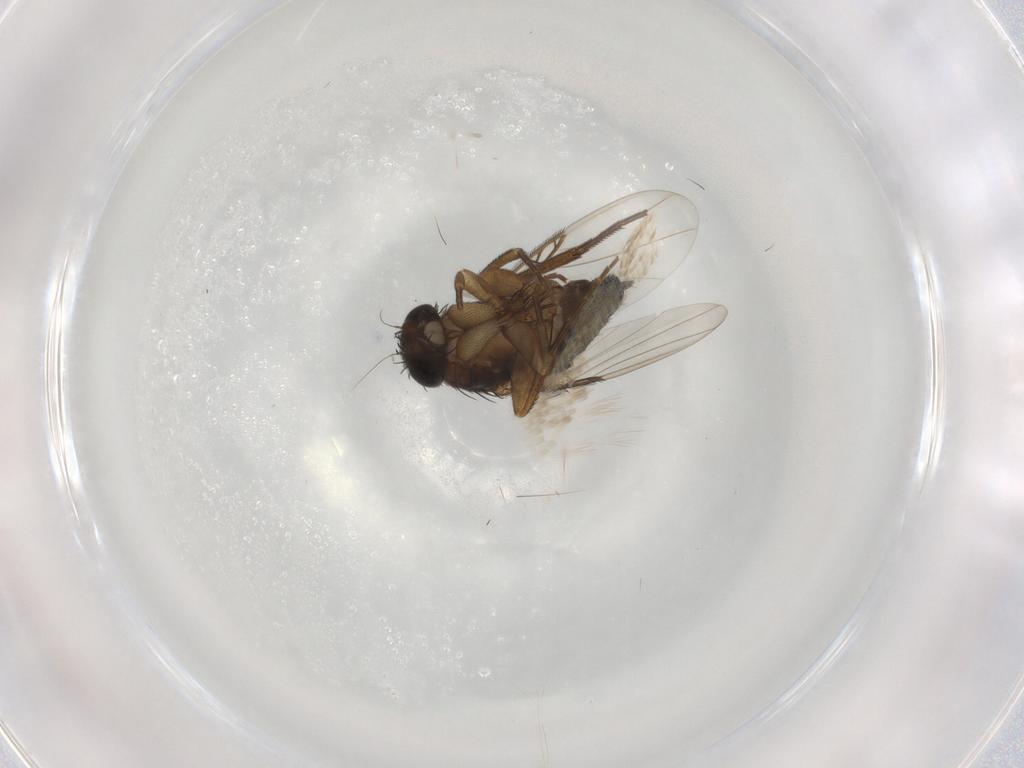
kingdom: Animalia
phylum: Arthropoda
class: Insecta
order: Diptera
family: Phoridae
